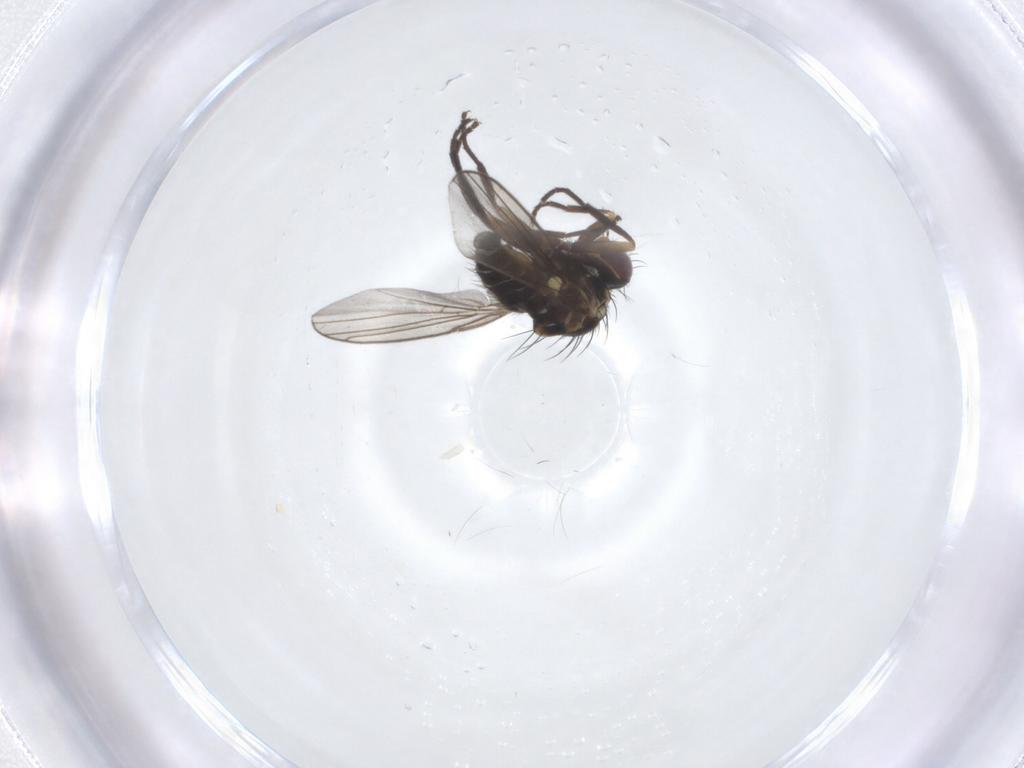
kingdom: Animalia
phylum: Arthropoda
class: Insecta
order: Diptera
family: Agromyzidae
